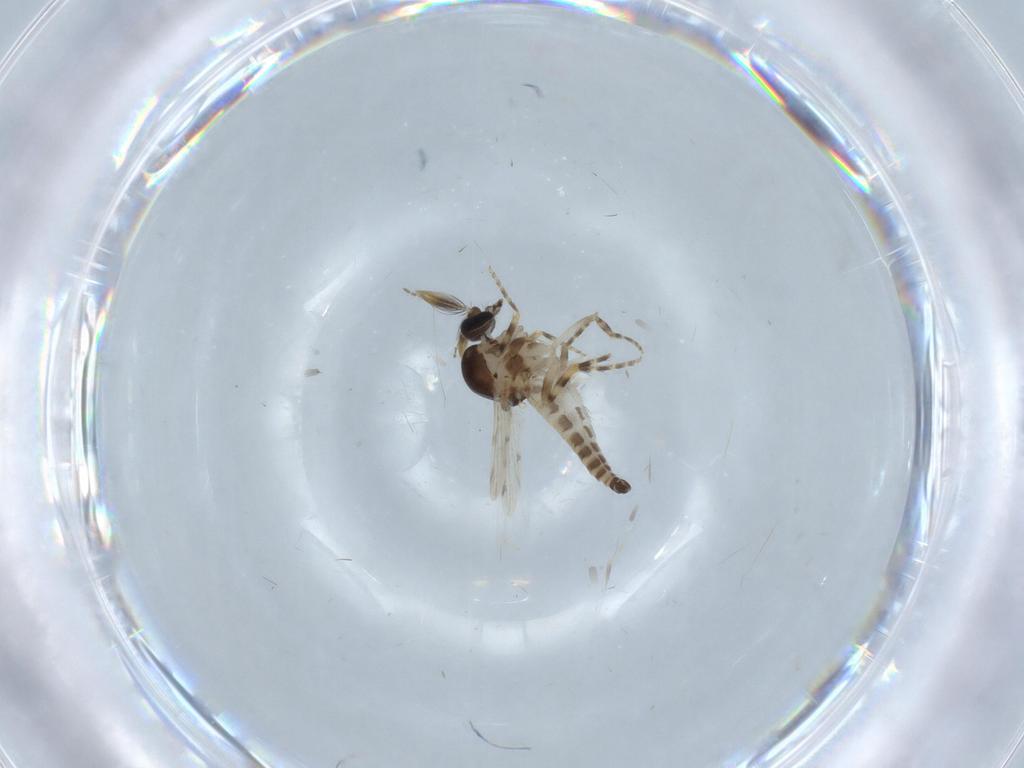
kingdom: Animalia
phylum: Arthropoda
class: Insecta
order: Diptera
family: Ceratopogonidae
